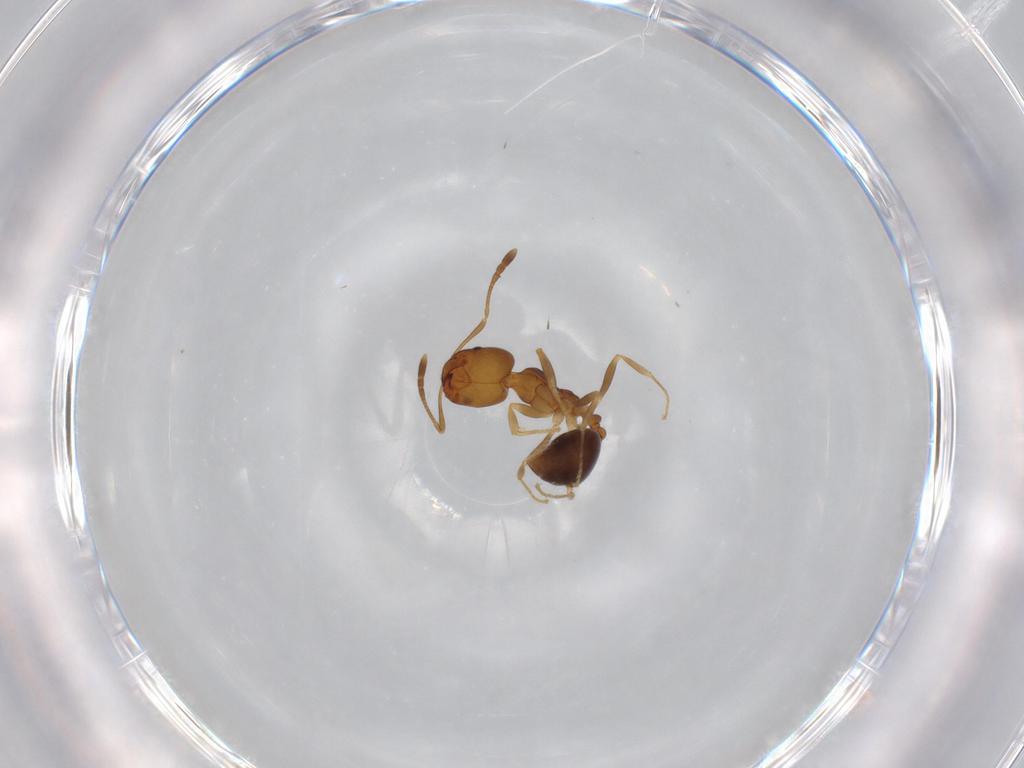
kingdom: Animalia
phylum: Arthropoda
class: Insecta
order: Hymenoptera
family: Formicidae
